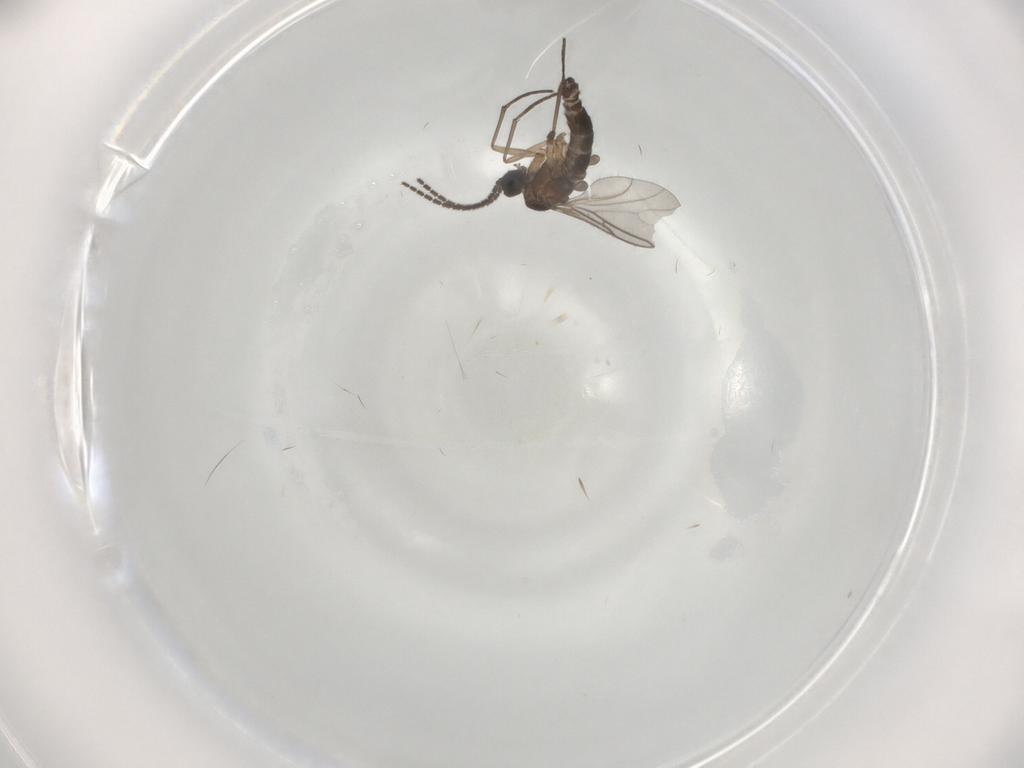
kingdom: Animalia
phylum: Arthropoda
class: Insecta
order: Diptera
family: Sciaridae
